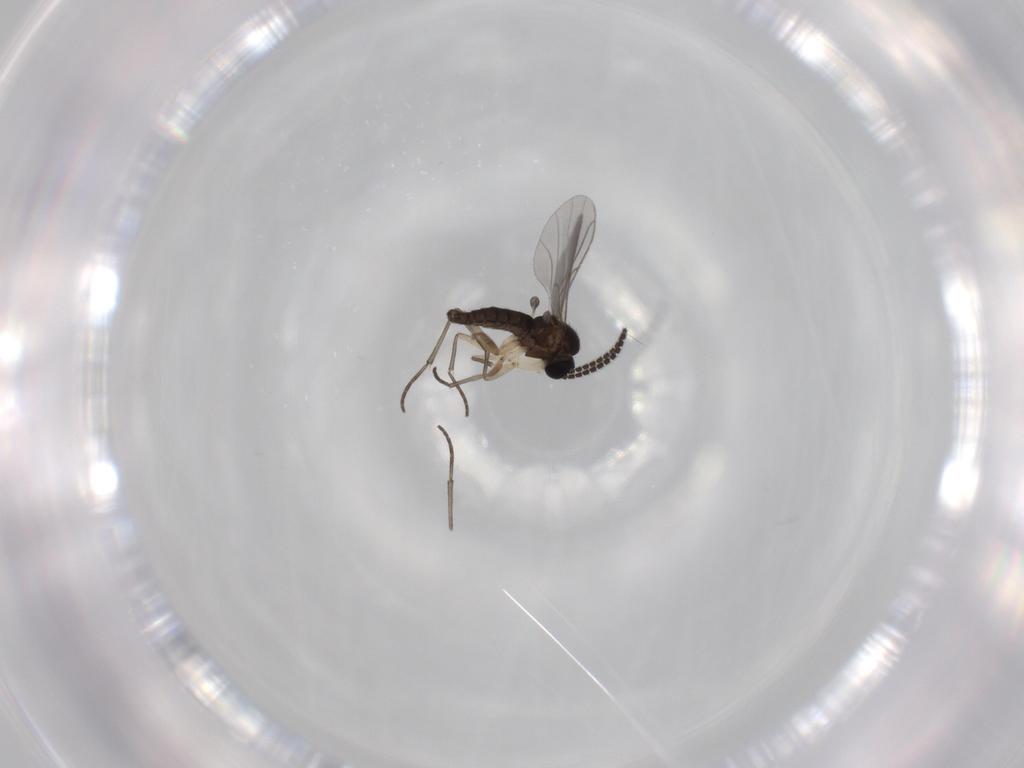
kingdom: Animalia
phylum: Arthropoda
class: Insecta
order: Diptera
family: Sciaridae
